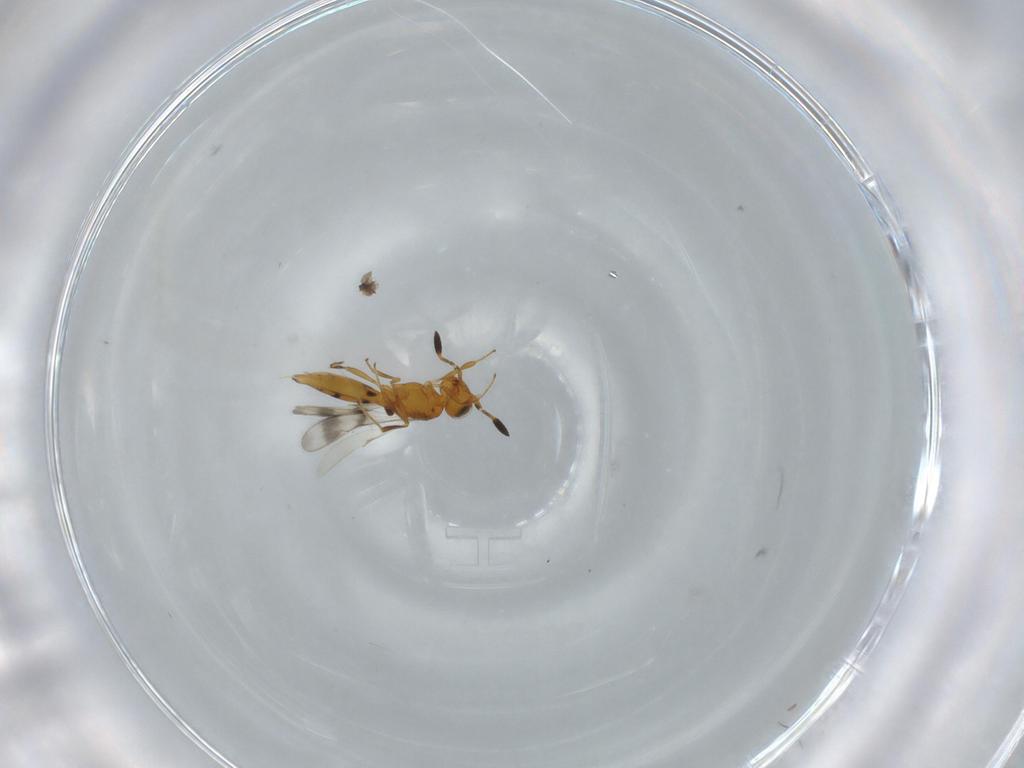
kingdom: Animalia
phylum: Arthropoda
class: Insecta
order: Hymenoptera
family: Scelionidae
